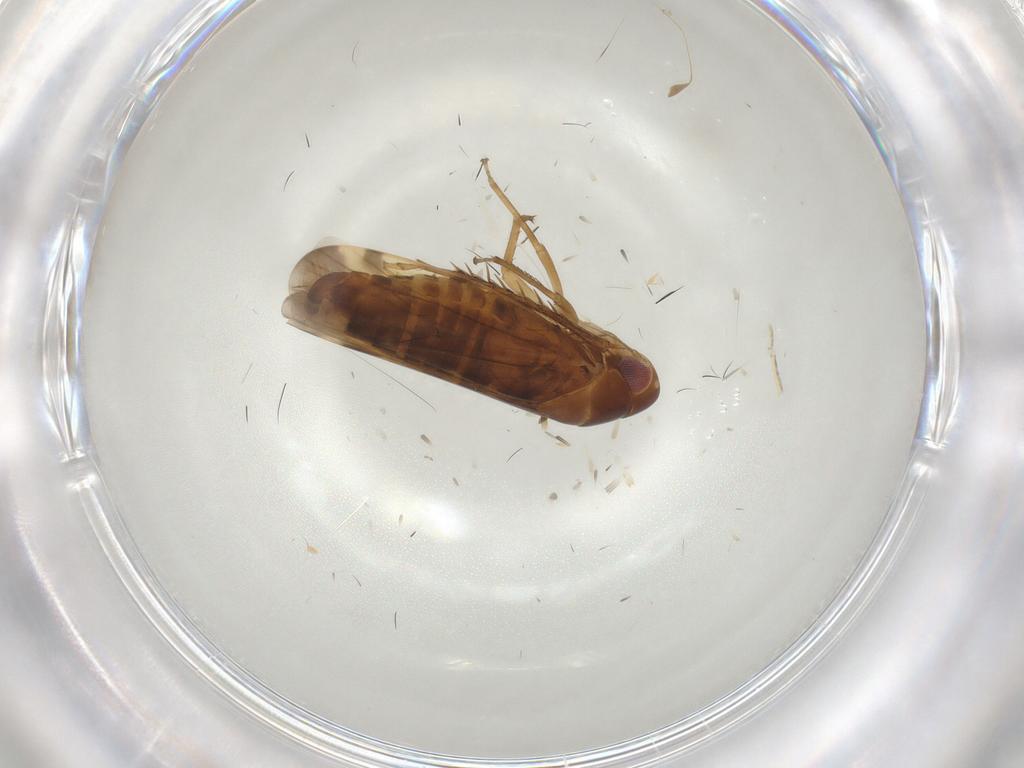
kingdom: Animalia
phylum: Arthropoda
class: Insecta
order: Hemiptera
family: Cicadellidae
